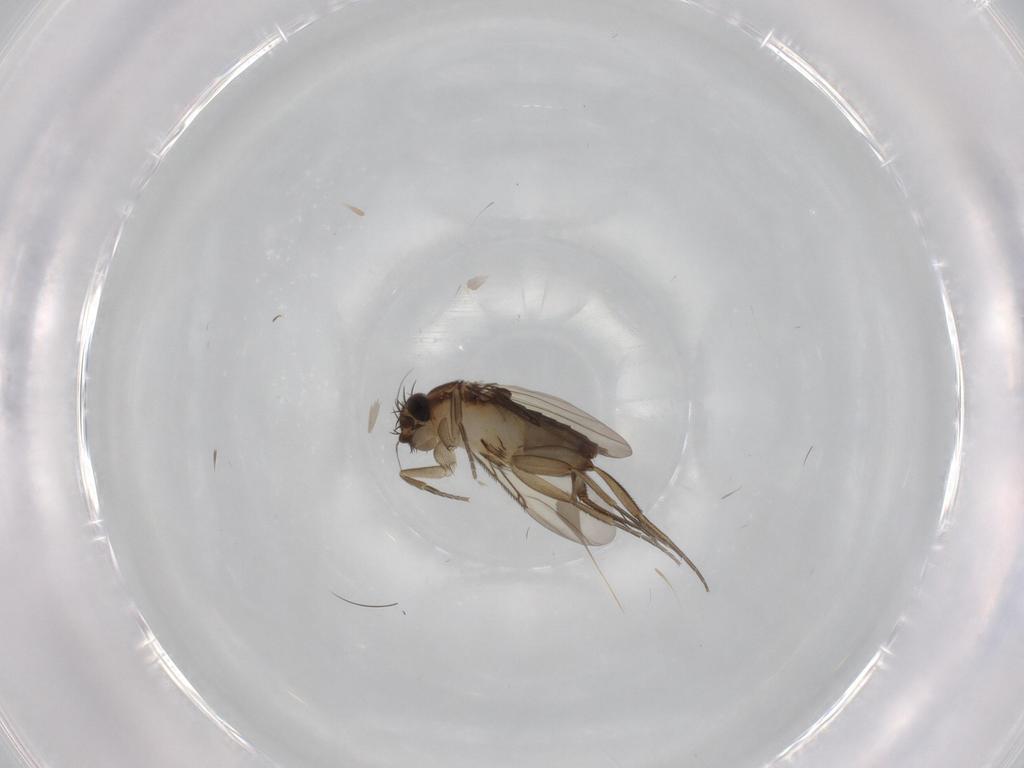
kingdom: Animalia
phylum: Arthropoda
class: Insecta
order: Diptera
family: Phoridae
